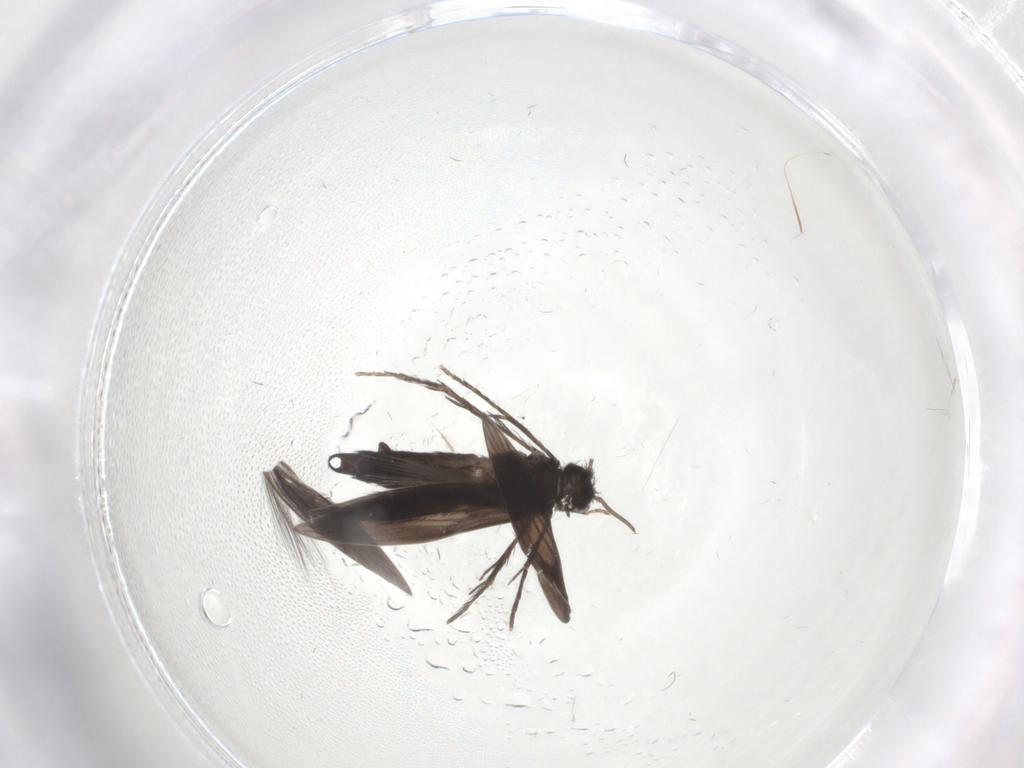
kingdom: Animalia
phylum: Arthropoda
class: Insecta
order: Trichoptera
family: Hydroptilidae
